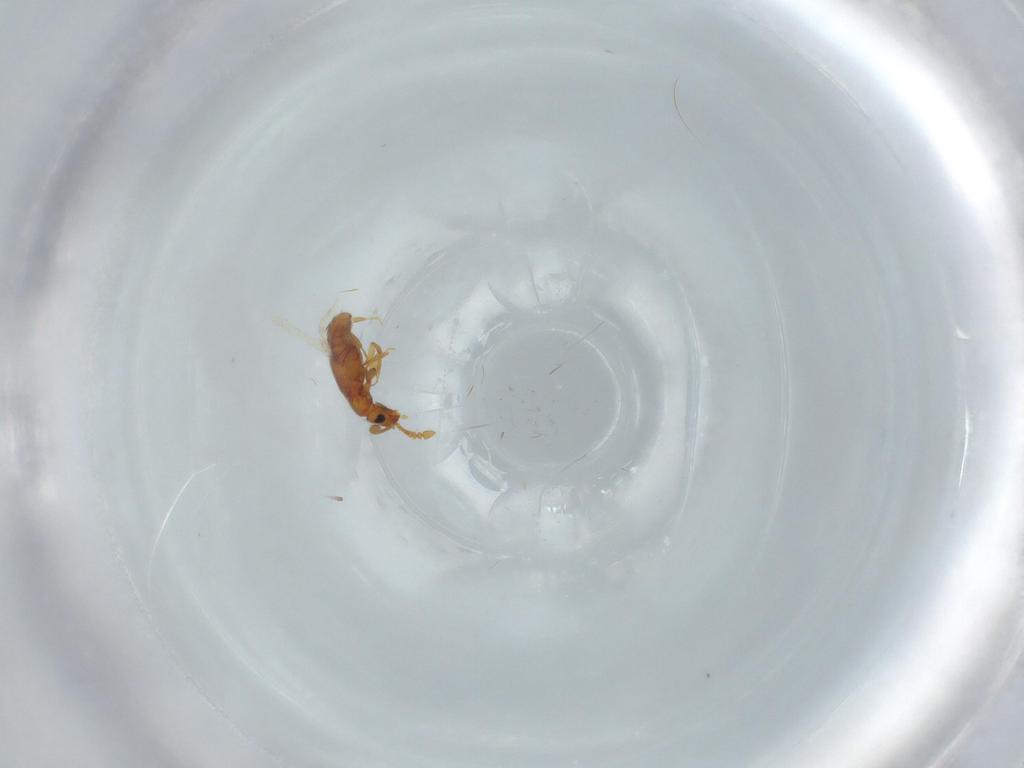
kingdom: Animalia
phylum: Arthropoda
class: Insecta
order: Coleoptera
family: Staphylinidae
